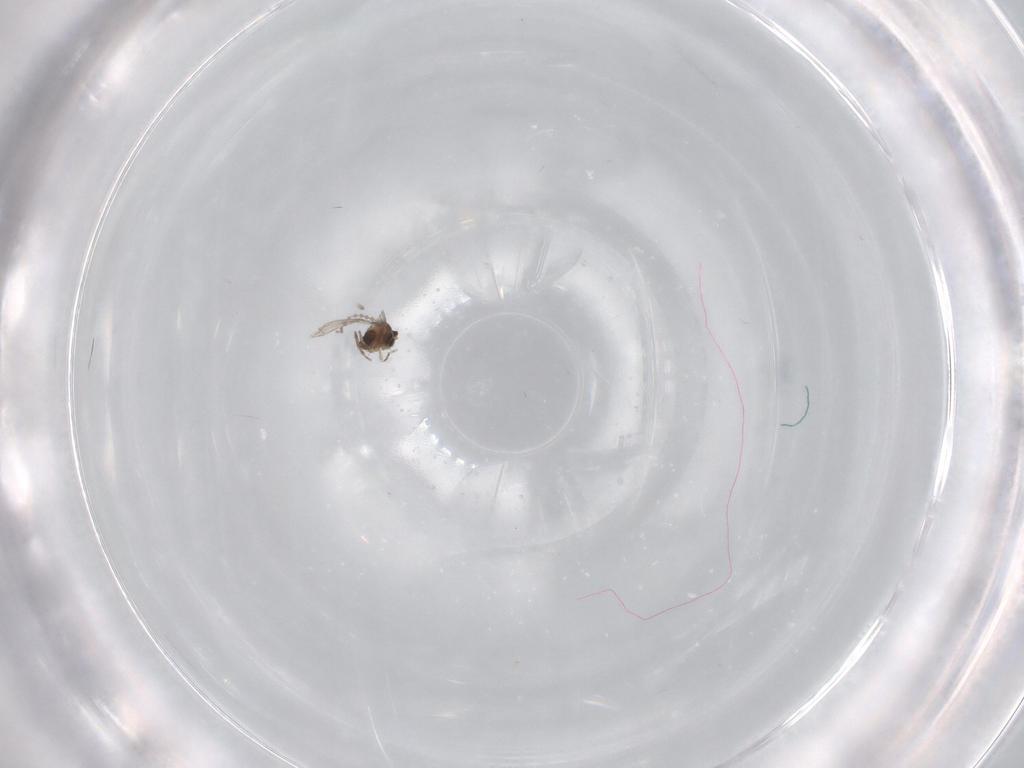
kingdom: Animalia
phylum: Arthropoda
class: Insecta
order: Diptera
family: Cecidomyiidae
